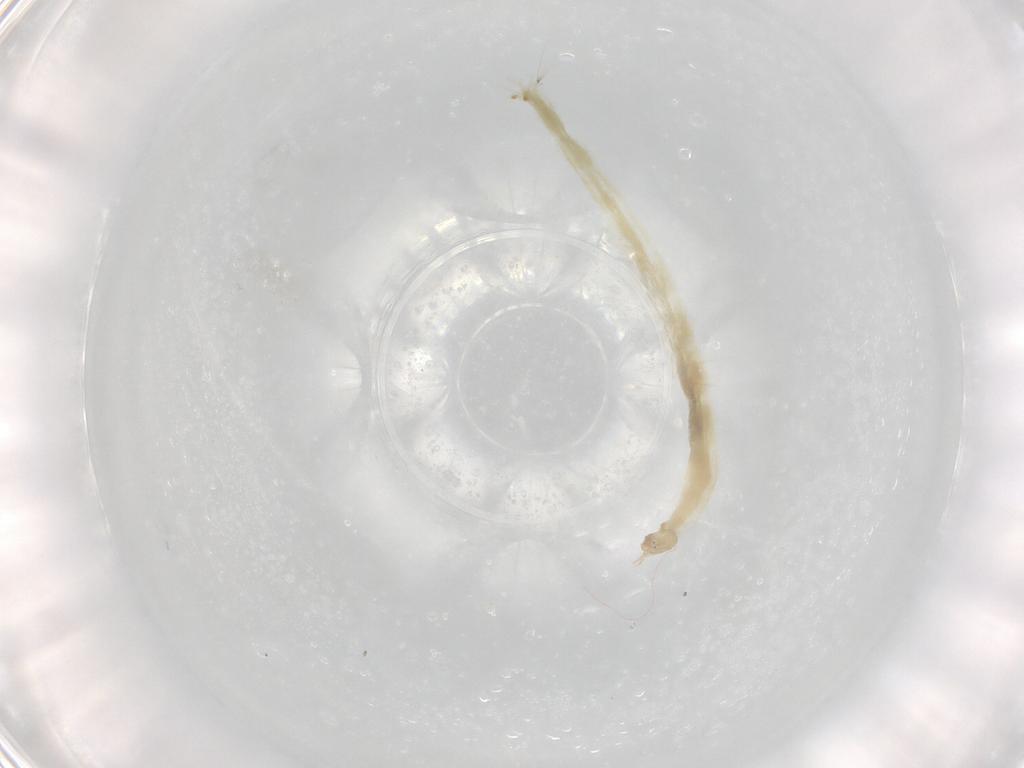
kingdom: Animalia
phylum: Arthropoda
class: Insecta
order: Diptera
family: Chironomidae
